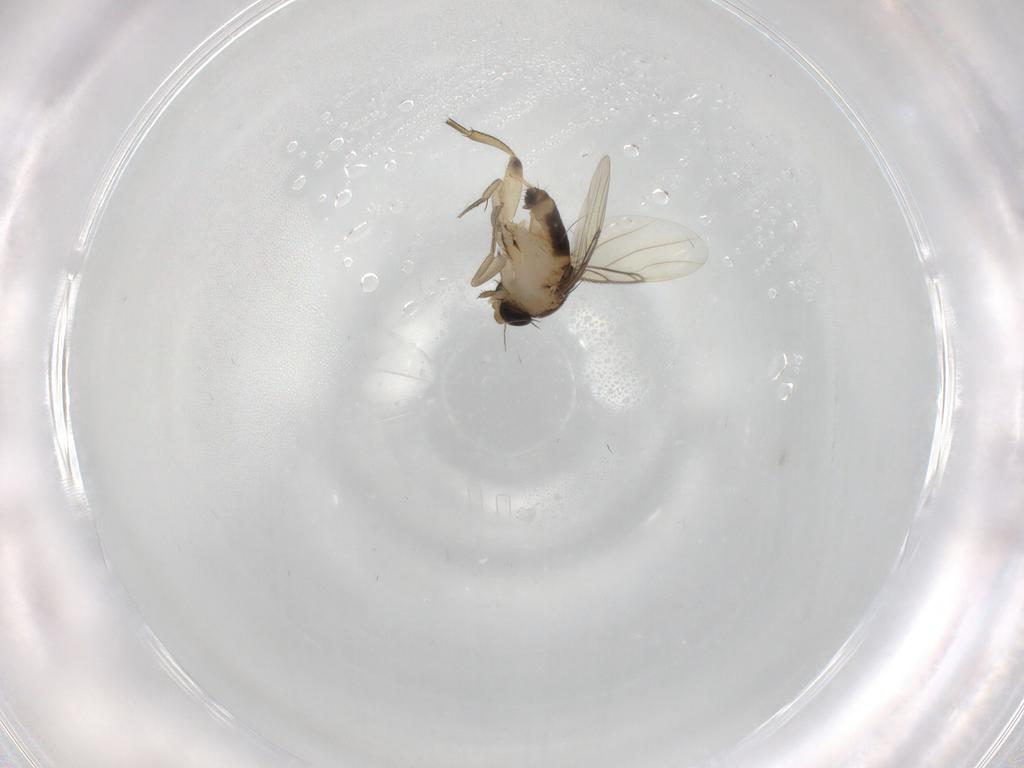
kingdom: Animalia
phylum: Arthropoda
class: Insecta
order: Diptera
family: Phoridae
